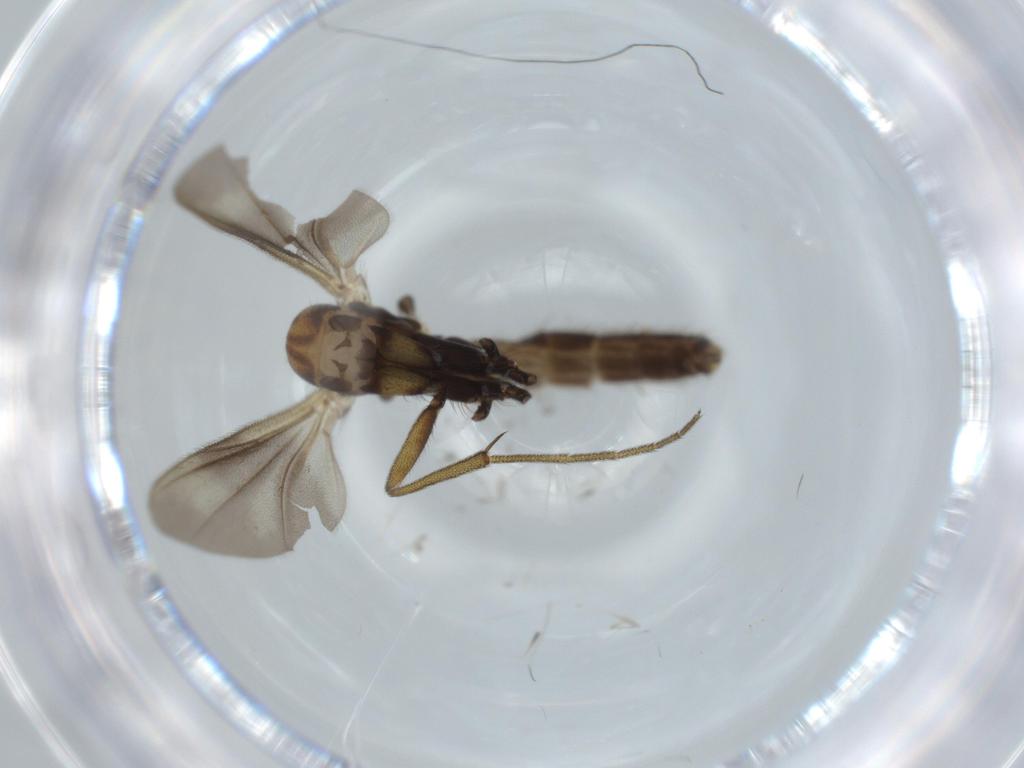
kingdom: Animalia
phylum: Arthropoda
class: Insecta
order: Diptera
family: Mycetophilidae
